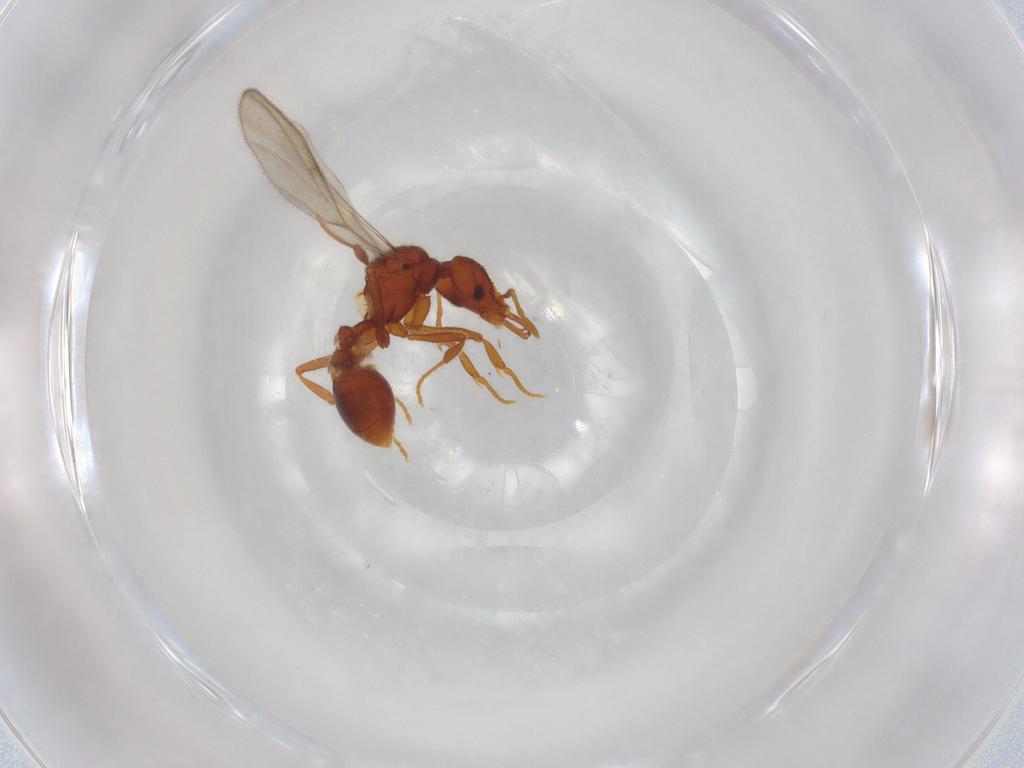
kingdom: Animalia
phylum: Arthropoda
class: Insecta
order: Hymenoptera
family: Formicidae
